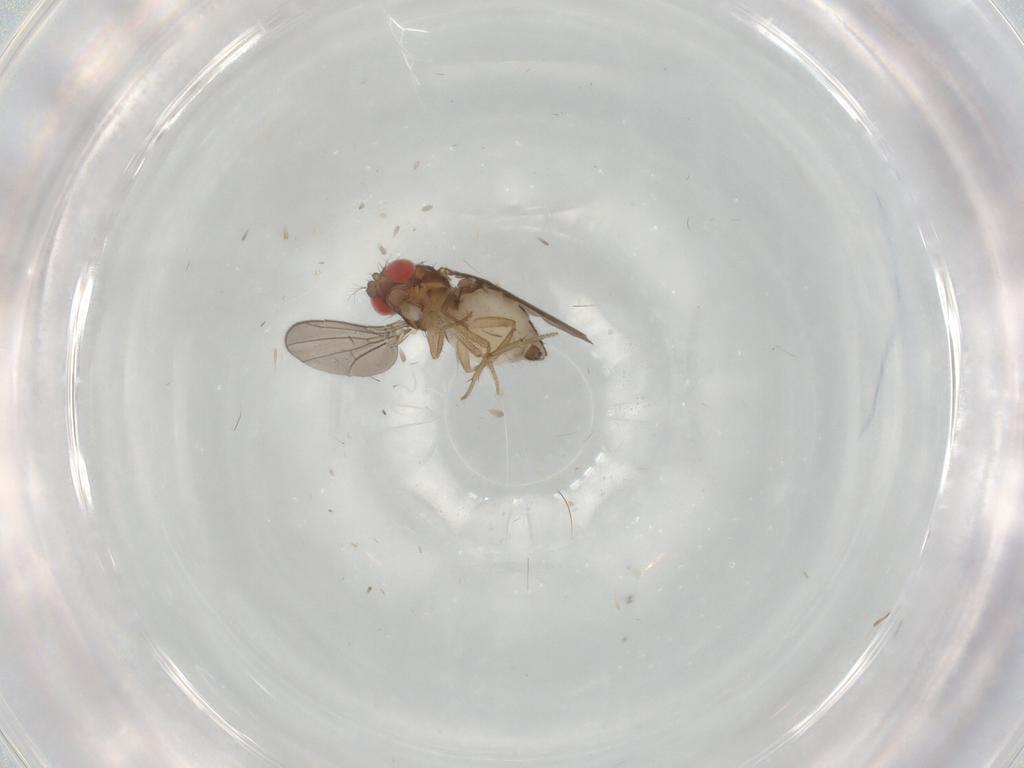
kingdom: Animalia
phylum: Arthropoda
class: Insecta
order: Diptera
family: Drosophilidae
